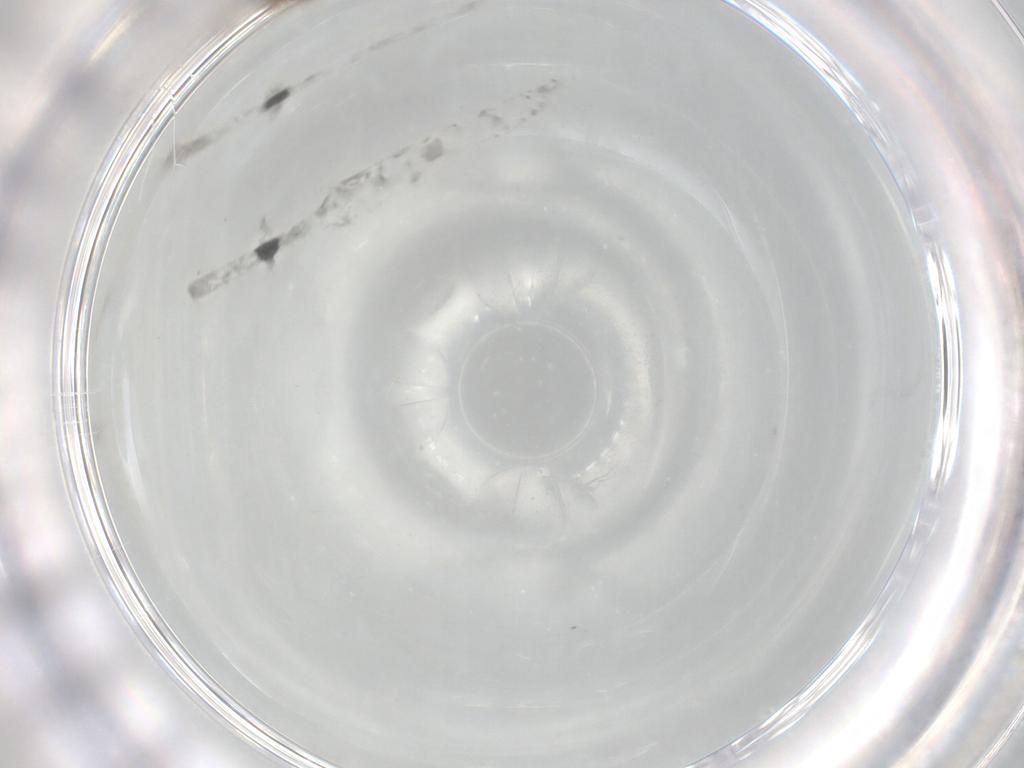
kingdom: Animalia
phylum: Arthropoda
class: Insecta
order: Diptera
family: Cecidomyiidae
